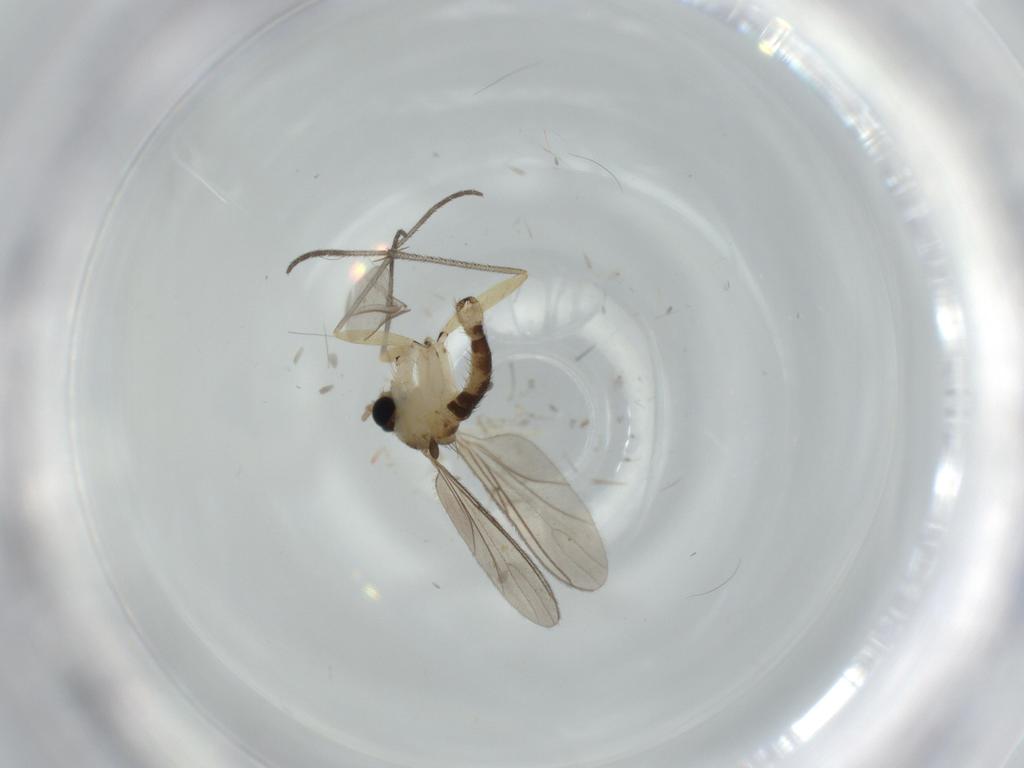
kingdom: Animalia
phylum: Arthropoda
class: Insecta
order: Diptera
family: Sciaridae
